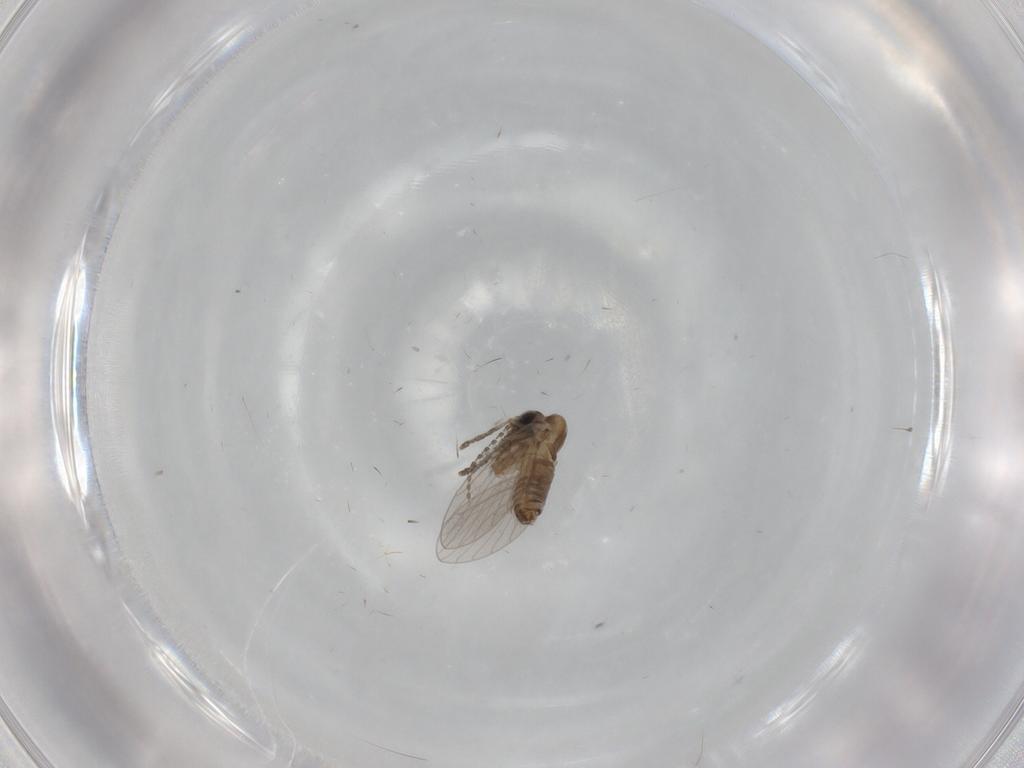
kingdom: Animalia
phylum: Arthropoda
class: Insecta
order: Diptera
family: Psychodidae
